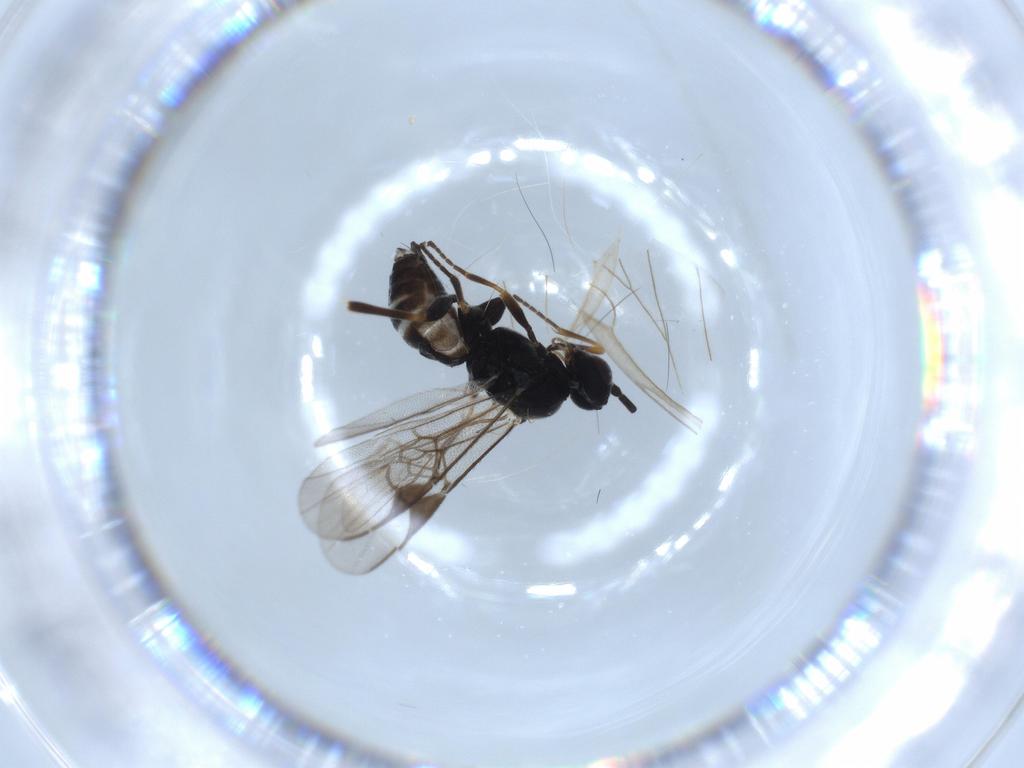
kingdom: Animalia
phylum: Arthropoda
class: Insecta
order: Hymenoptera
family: Braconidae
